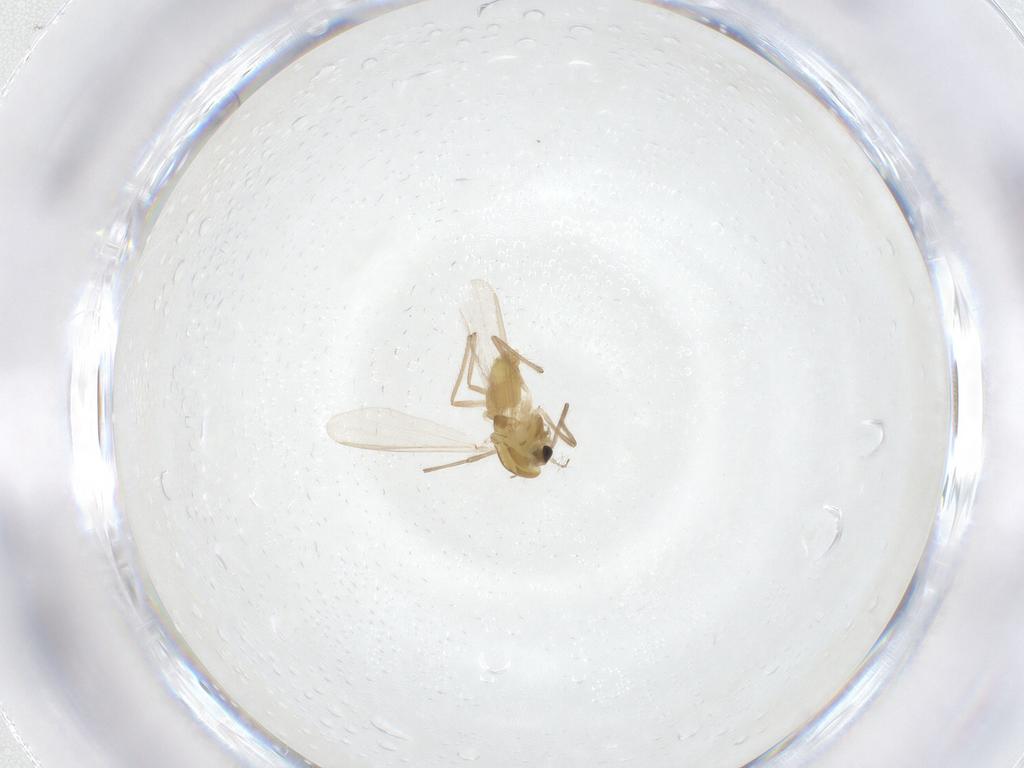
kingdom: Animalia
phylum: Arthropoda
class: Insecta
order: Diptera
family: Chironomidae
